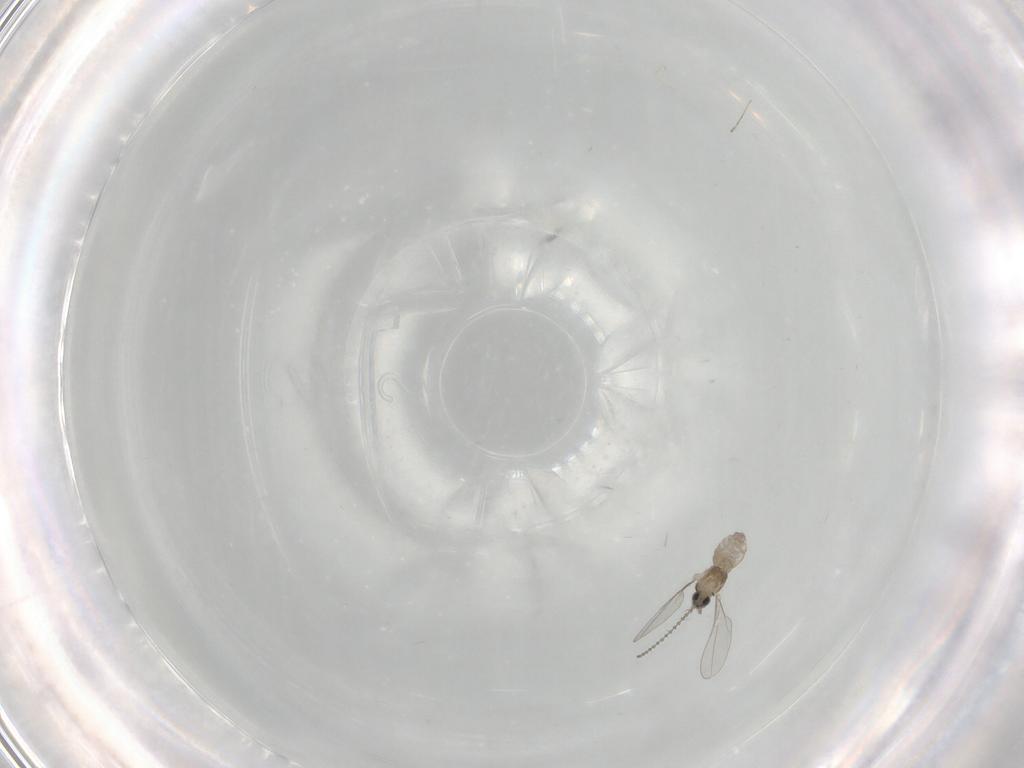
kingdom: Animalia
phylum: Arthropoda
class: Insecta
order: Diptera
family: Cecidomyiidae
